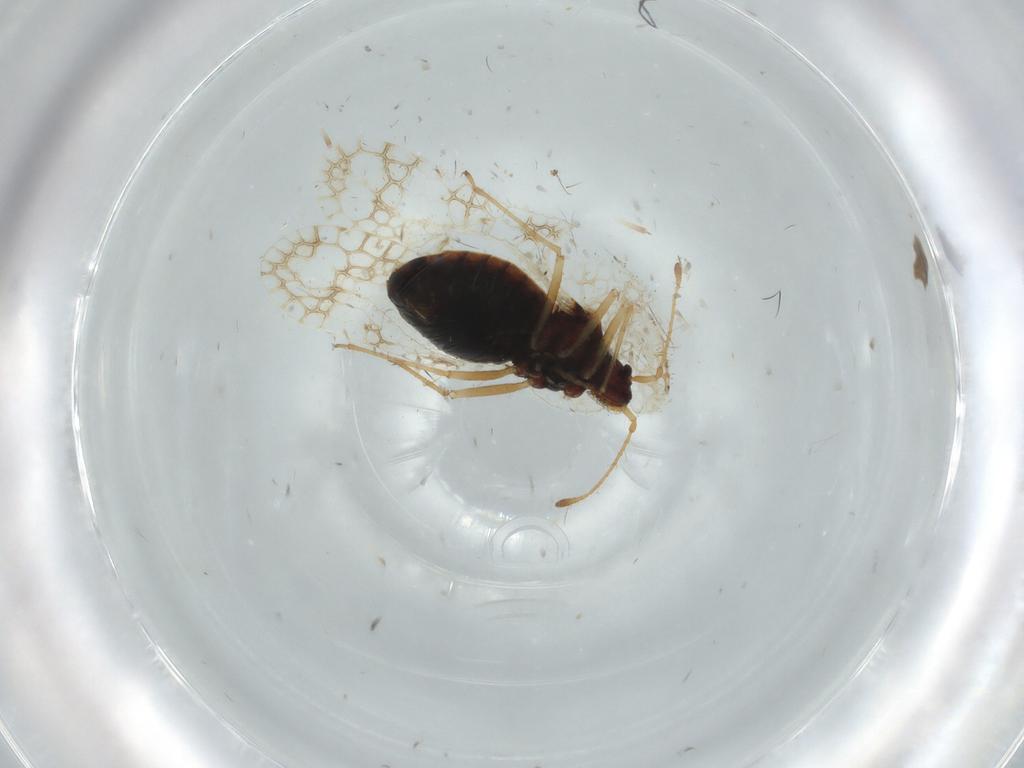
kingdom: Animalia
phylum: Arthropoda
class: Insecta
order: Hemiptera
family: Tingidae
